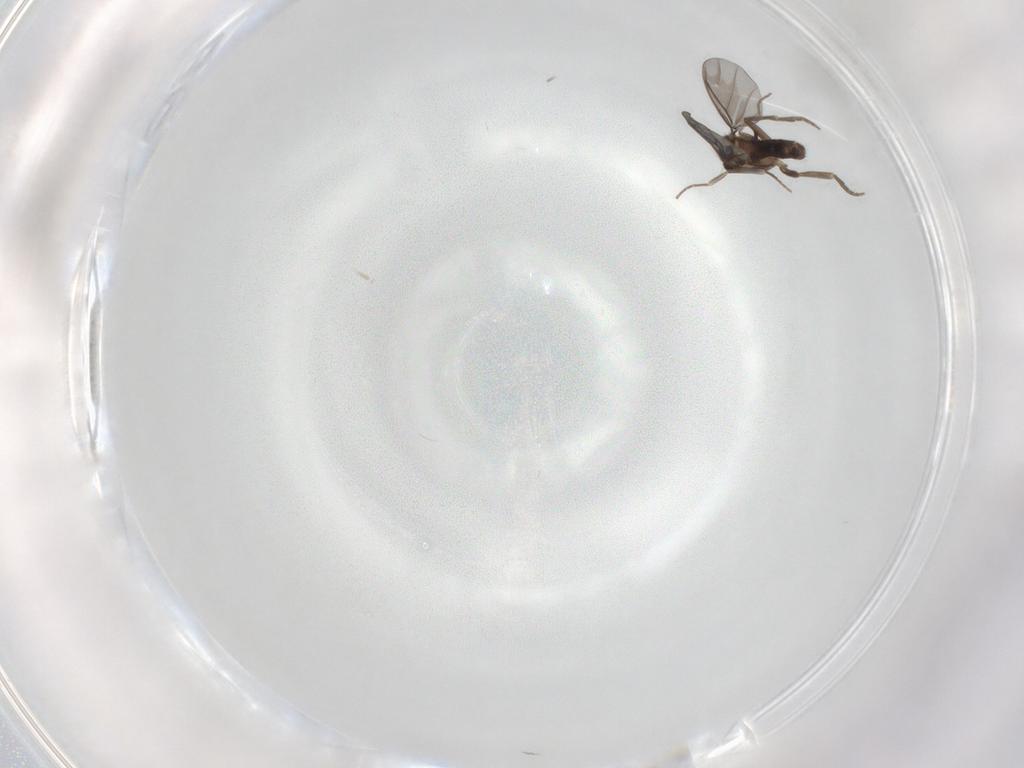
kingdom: Animalia
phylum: Arthropoda
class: Insecta
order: Diptera
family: Phoridae
